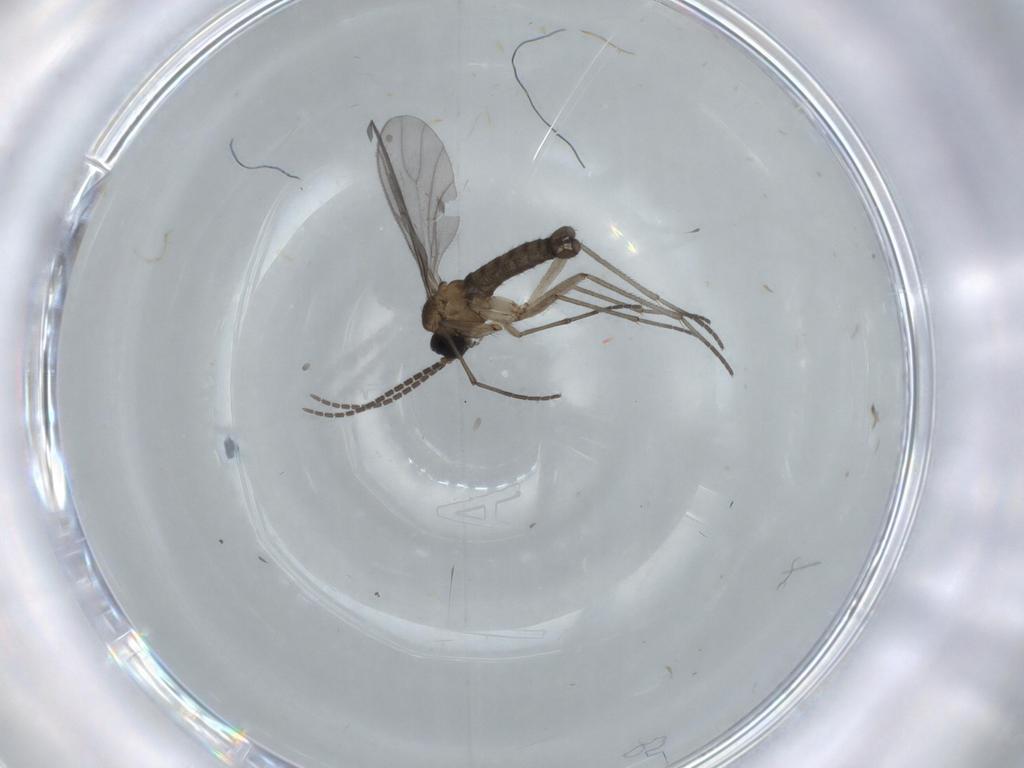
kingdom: Animalia
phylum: Arthropoda
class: Insecta
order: Diptera
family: Sciaridae
